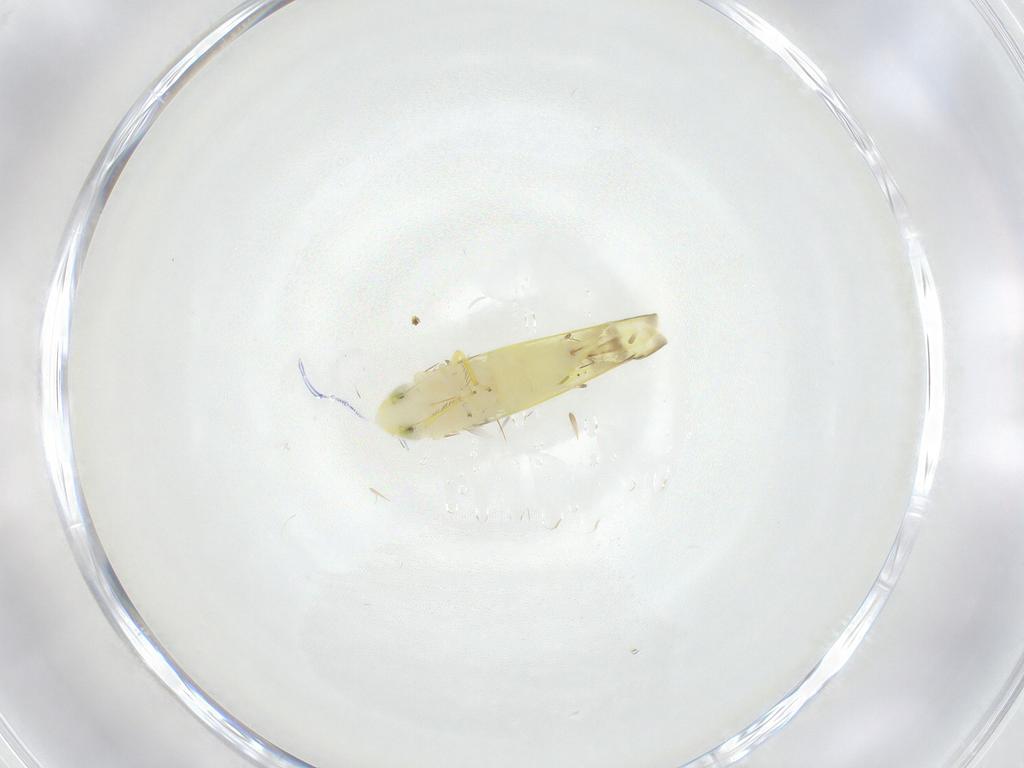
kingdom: Animalia
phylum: Arthropoda
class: Insecta
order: Hemiptera
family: Cicadellidae
